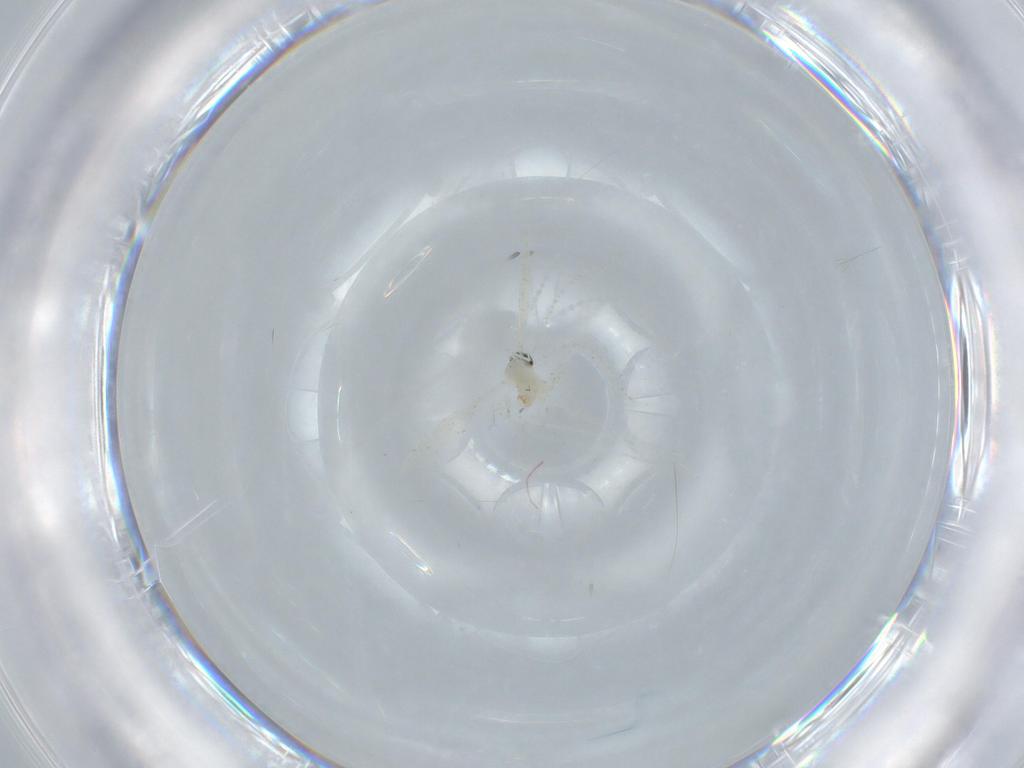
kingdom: Animalia
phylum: Arthropoda
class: Insecta
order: Diptera
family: Cecidomyiidae
